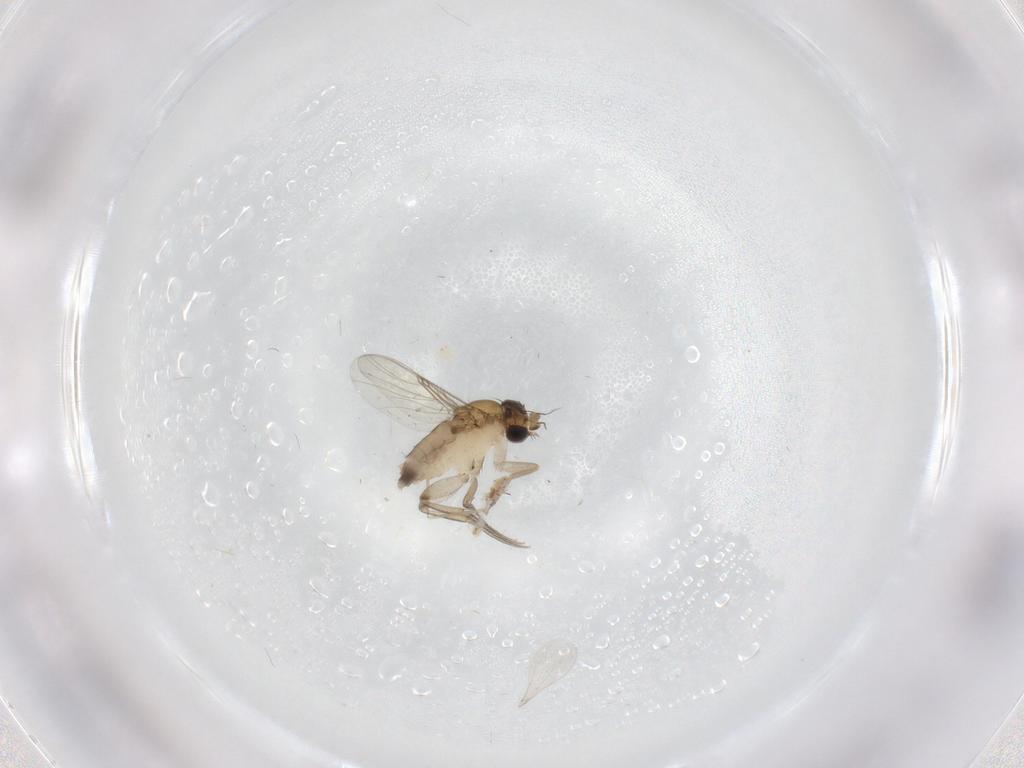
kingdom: Animalia
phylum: Arthropoda
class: Insecta
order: Diptera
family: Phoridae
